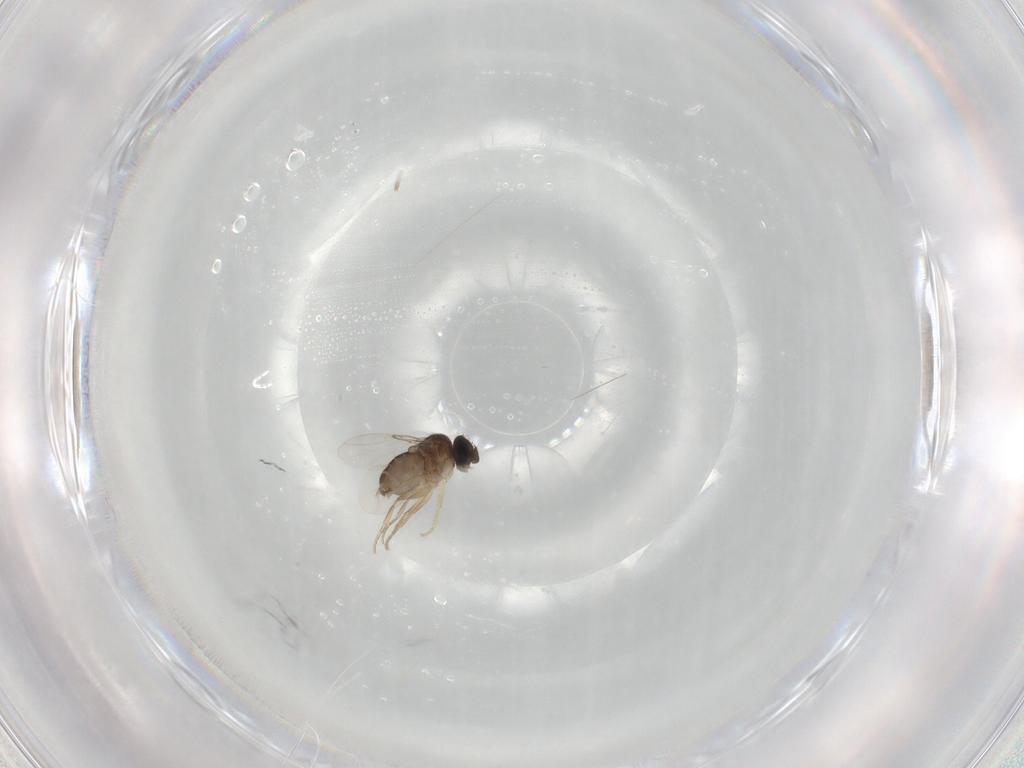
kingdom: Animalia
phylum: Arthropoda
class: Insecta
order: Diptera
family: Phoridae
